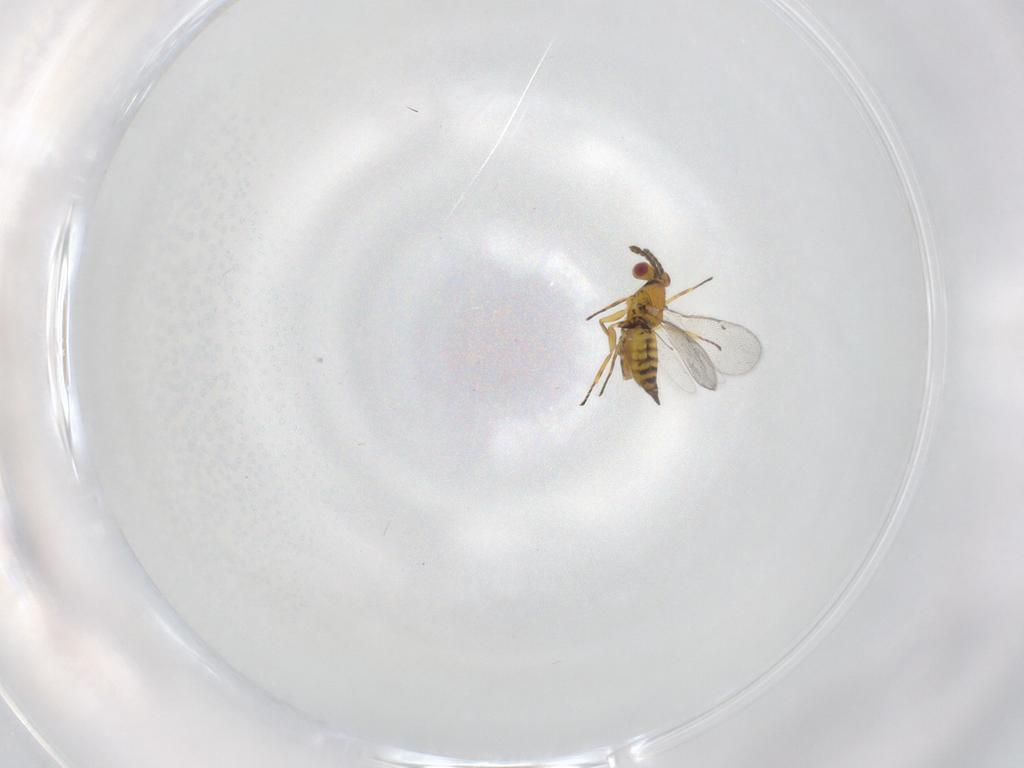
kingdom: Animalia
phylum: Arthropoda
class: Insecta
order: Hymenoptera
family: Eulophidae
